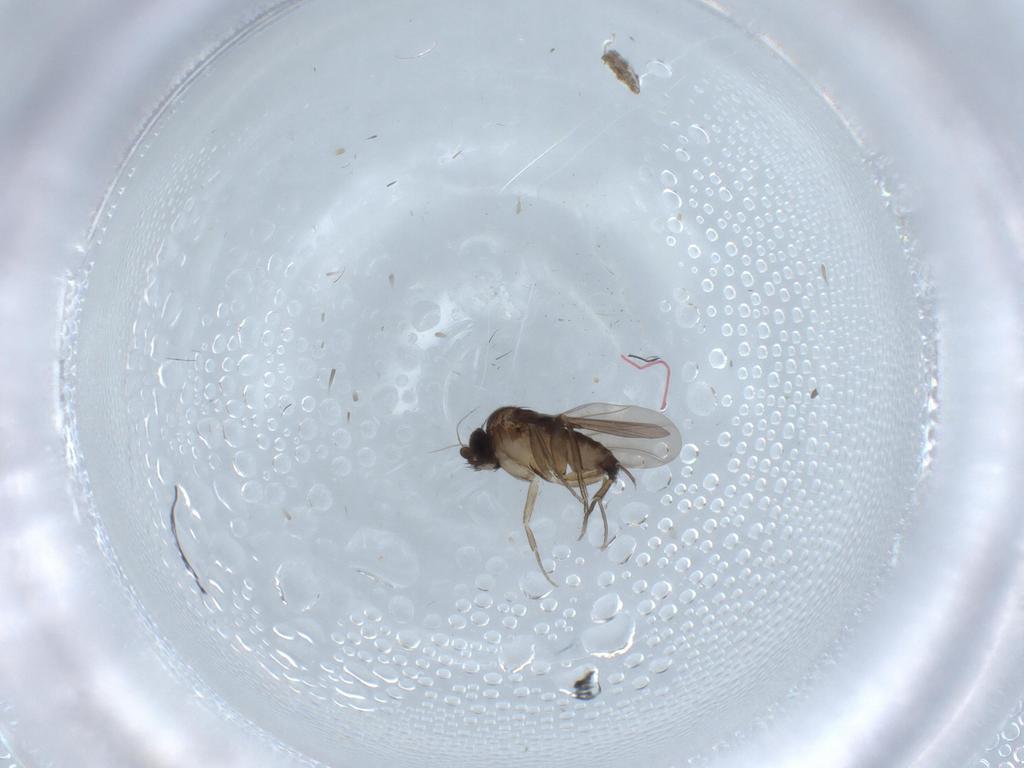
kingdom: Animalia
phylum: Arthropoda
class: Insecta
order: Diptera
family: Phoridae
